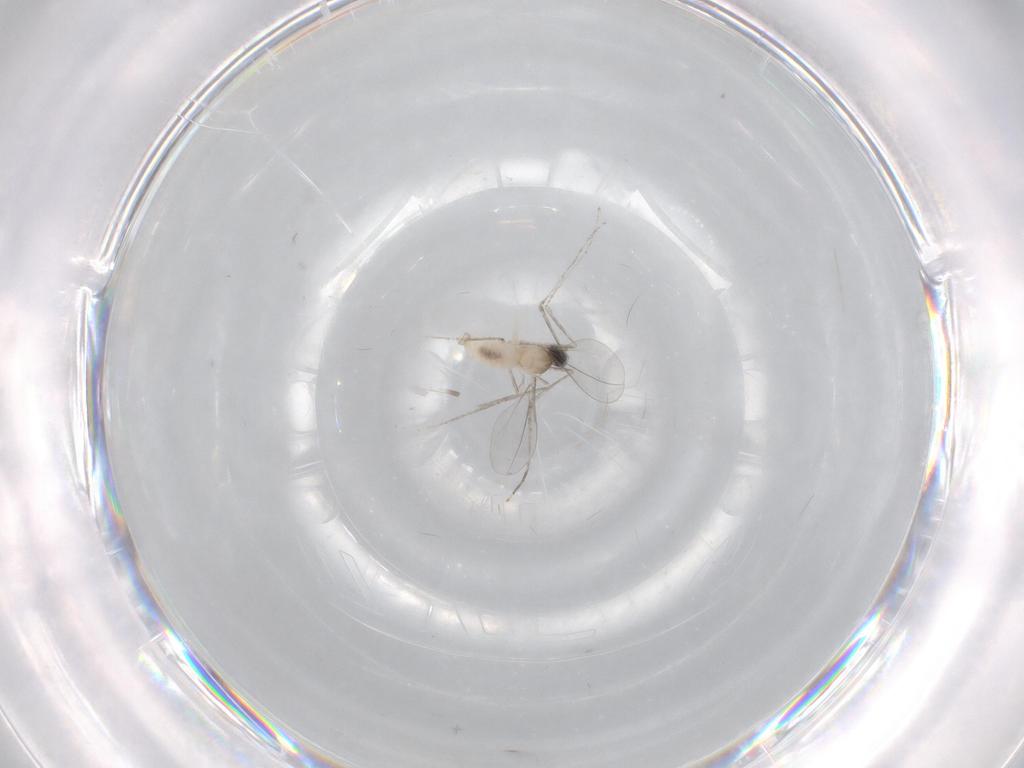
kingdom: Animalia
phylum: Arthropoda
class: Insecta
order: Diptera
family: Cecidomyiidae
